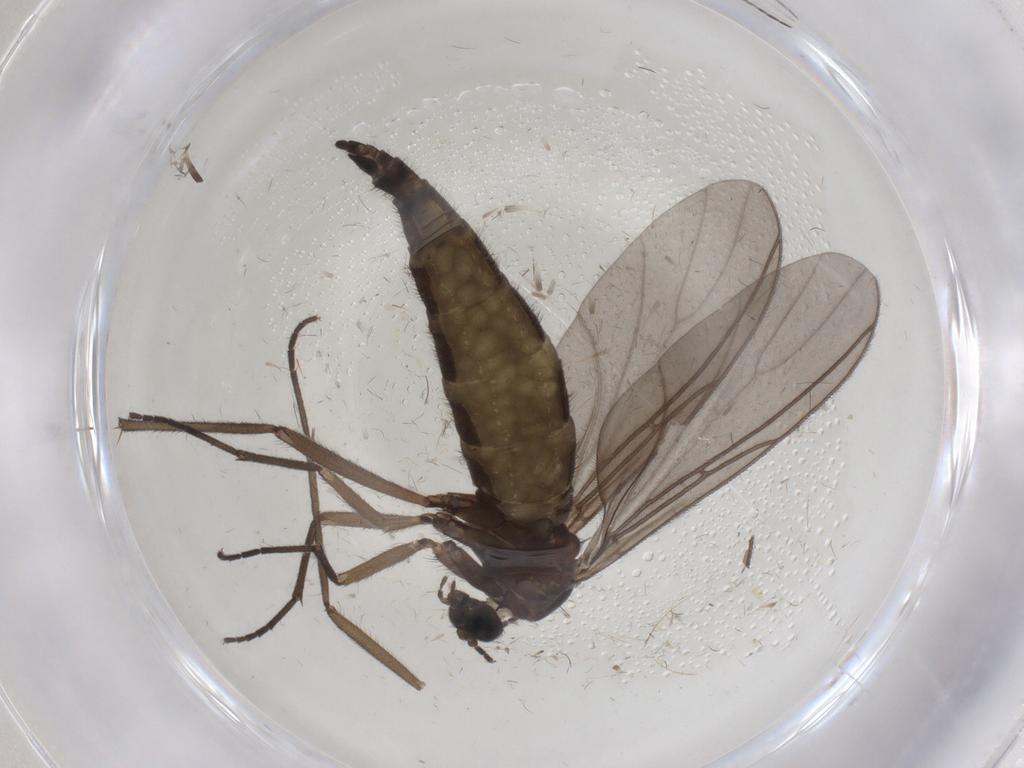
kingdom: Animalia
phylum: Arthropoda
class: Insecta
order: Diptera
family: Sciaridae
